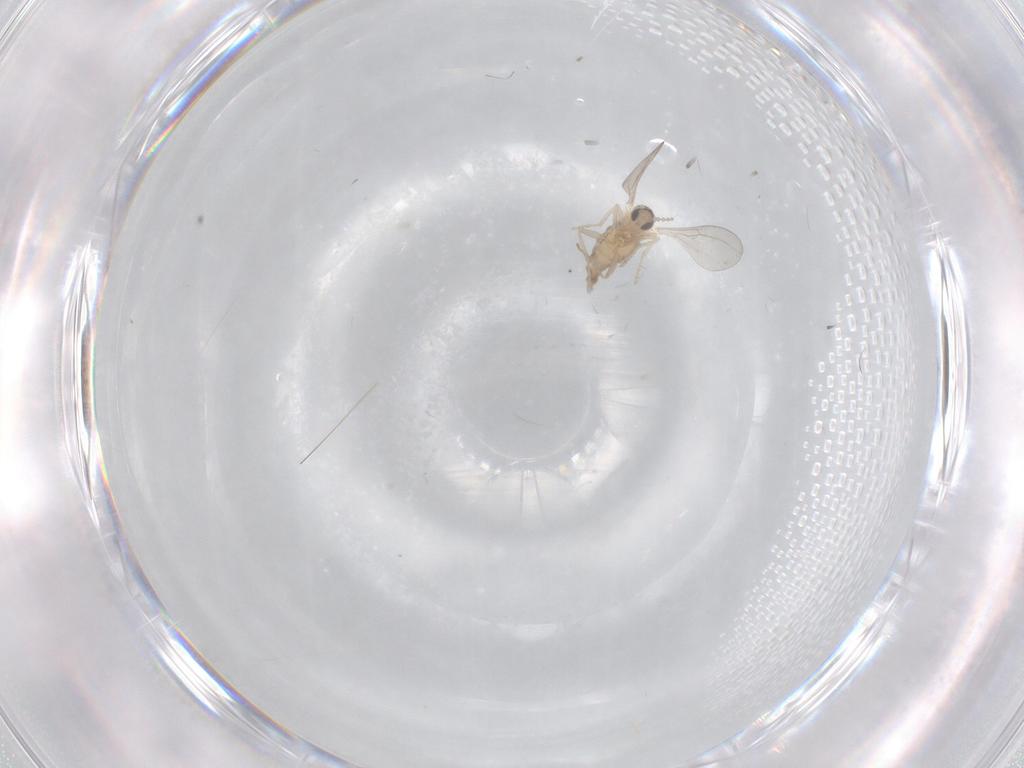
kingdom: Animalia
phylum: Arthropoda
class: Insecta
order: Diptera
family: Cecidomyiidae
